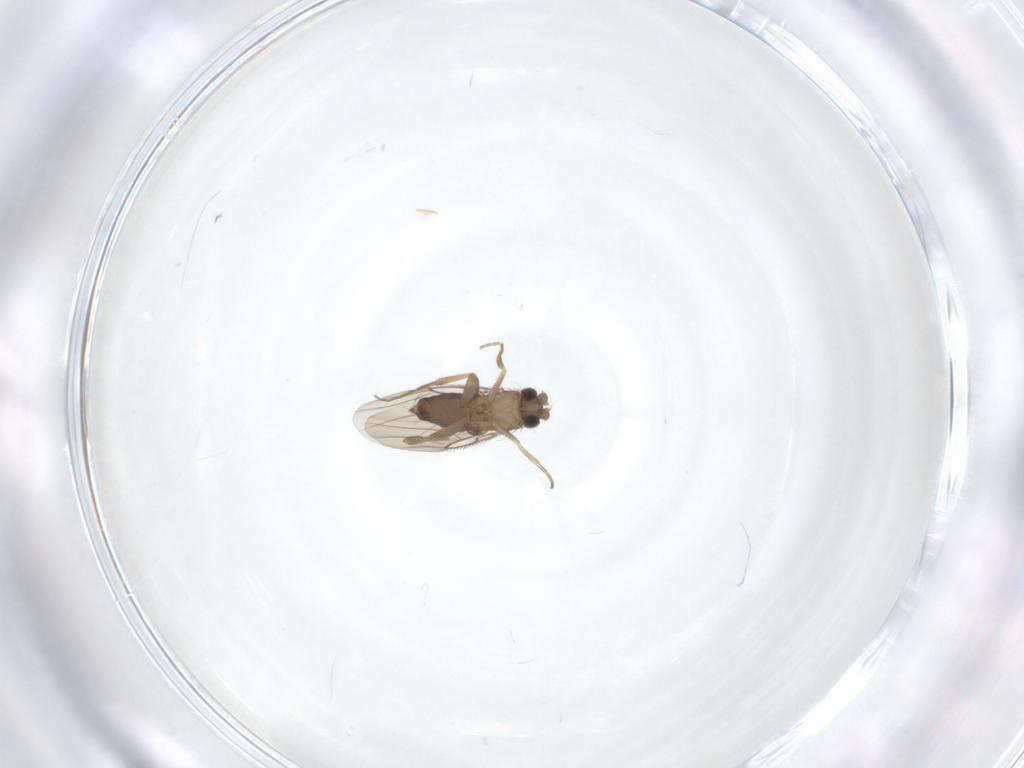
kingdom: Animalia
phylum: Arthropoda
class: Insecta
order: Diptera
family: Phoridae
